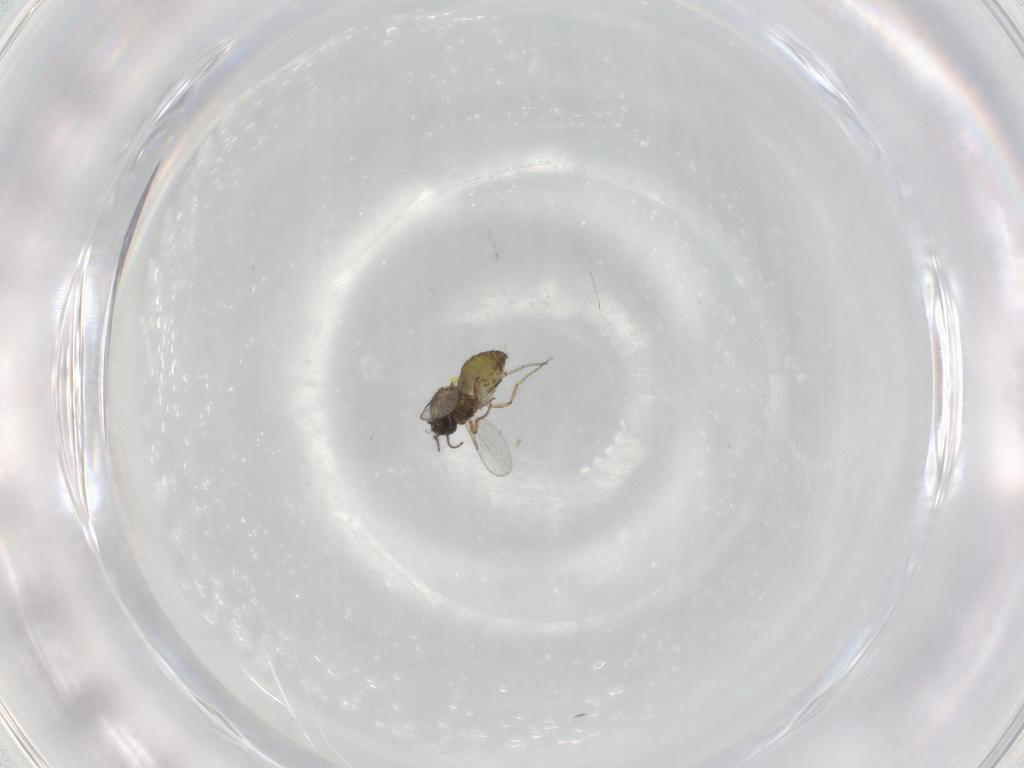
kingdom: Animalia
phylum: Arthropoda
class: Insecta
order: Diptera
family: Ceratopogonidae
